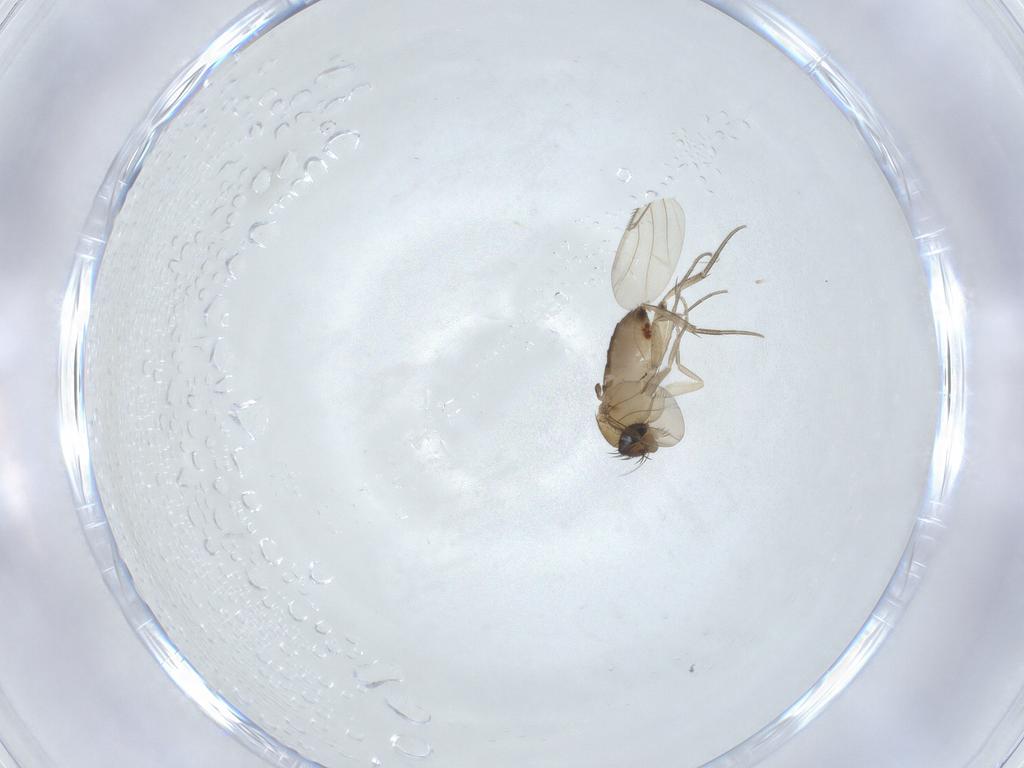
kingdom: Animalia
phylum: Arthropoda
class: Insecta
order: Diptera
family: Phoridae
